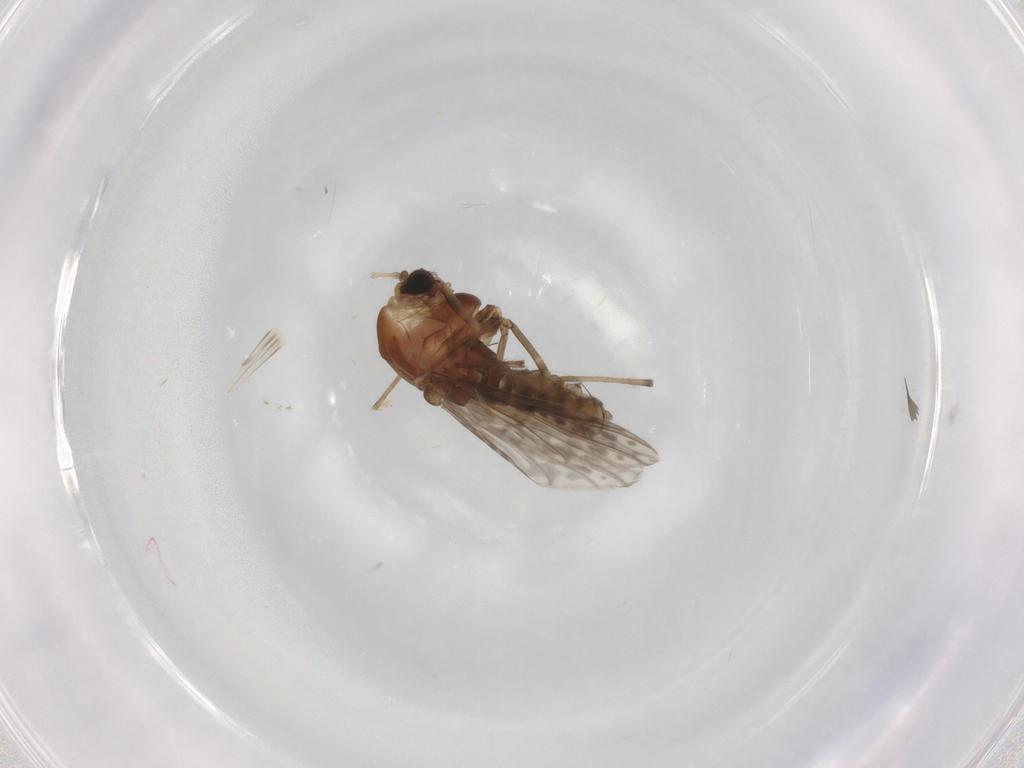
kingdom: Animalia
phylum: Arthropoda
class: Insecta
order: Diptera
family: Chironomidae
